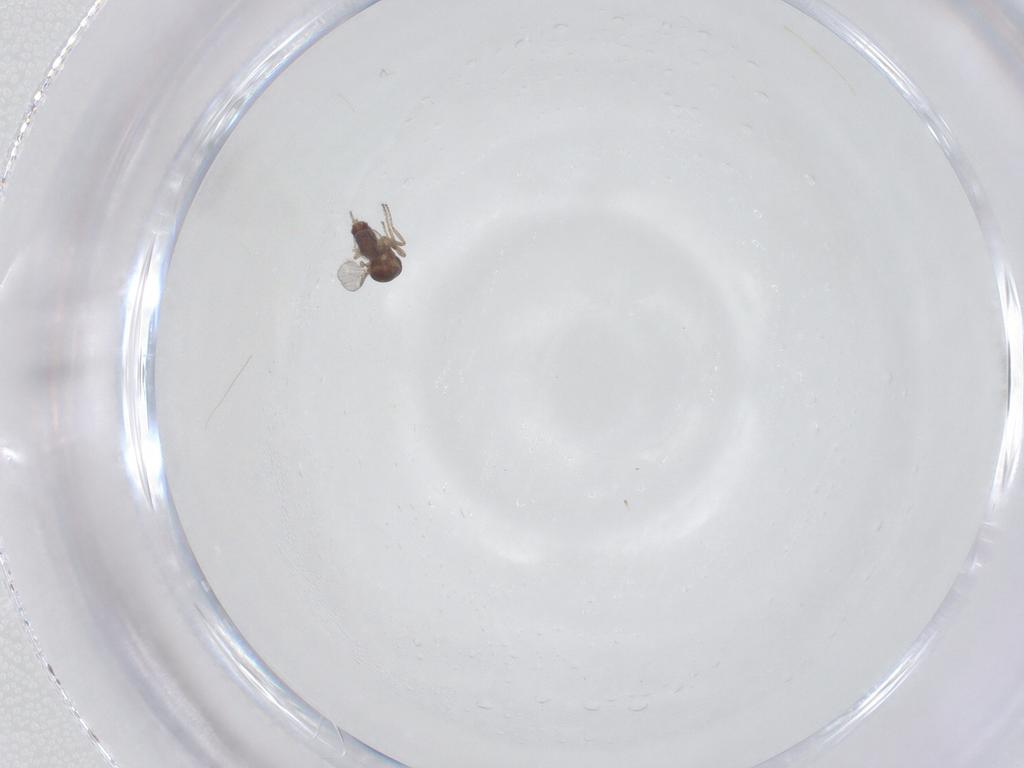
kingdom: Animalia
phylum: Arthropoda
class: Insecta
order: Diptera
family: Ceratopogonidae
